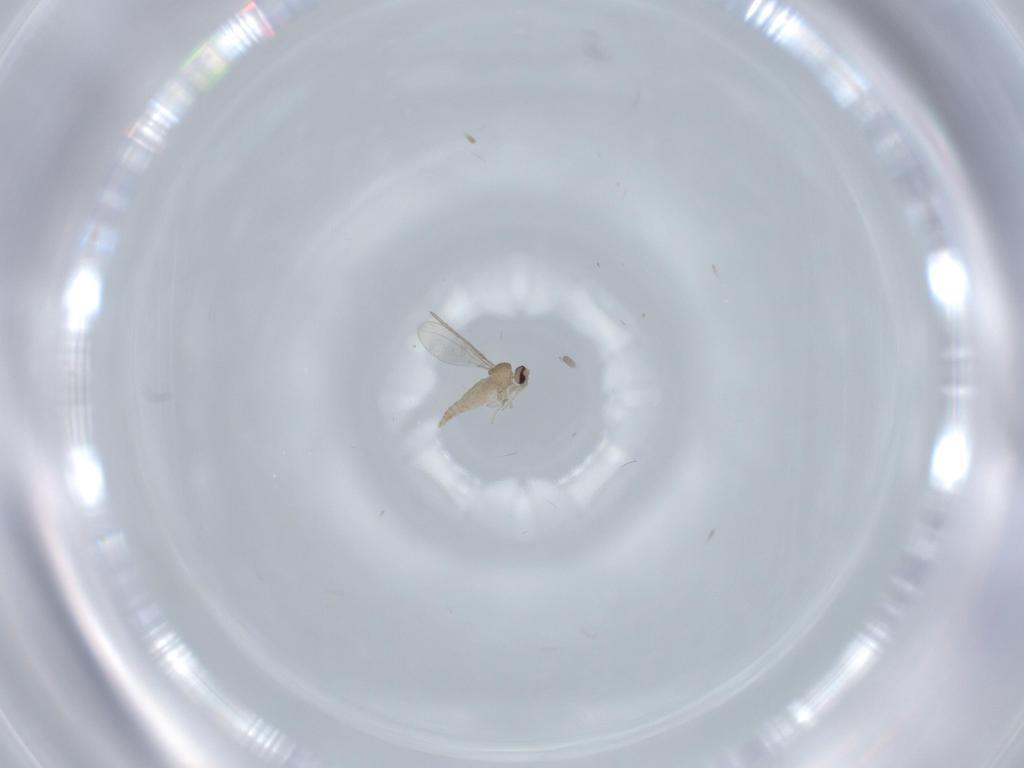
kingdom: Animalia
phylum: Arthropoda
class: Insecta
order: Diptera
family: Cecidomyiidae
